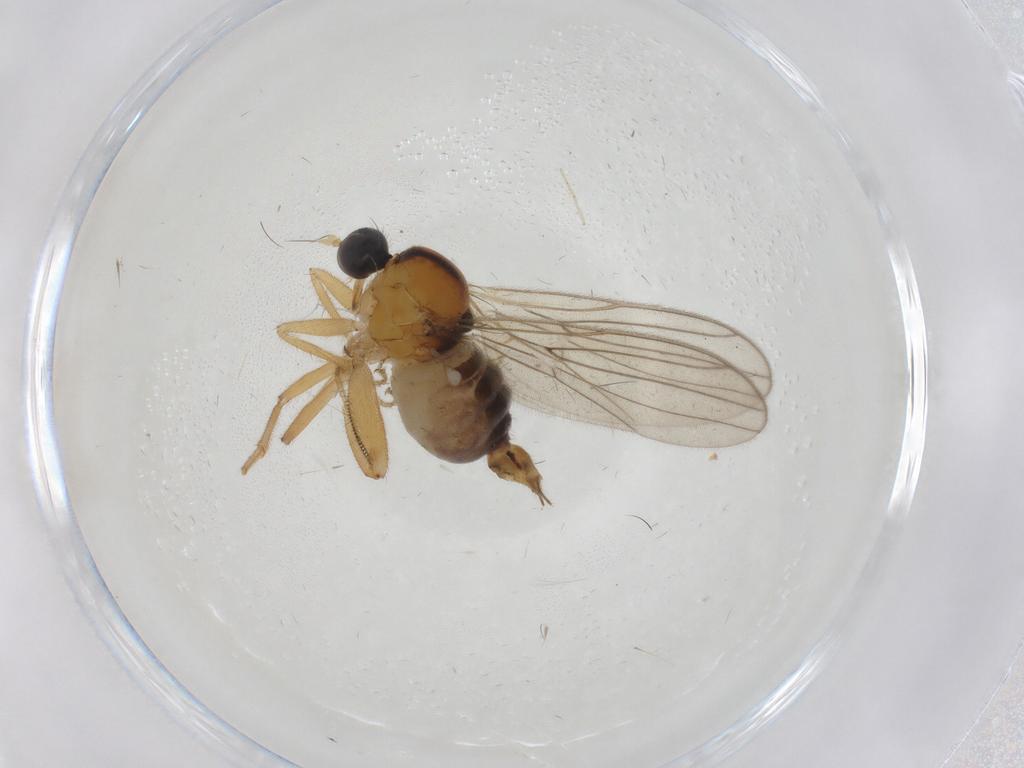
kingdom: Animalia
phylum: Arthropoda
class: Insecta
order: Diptera
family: Hybotidae
